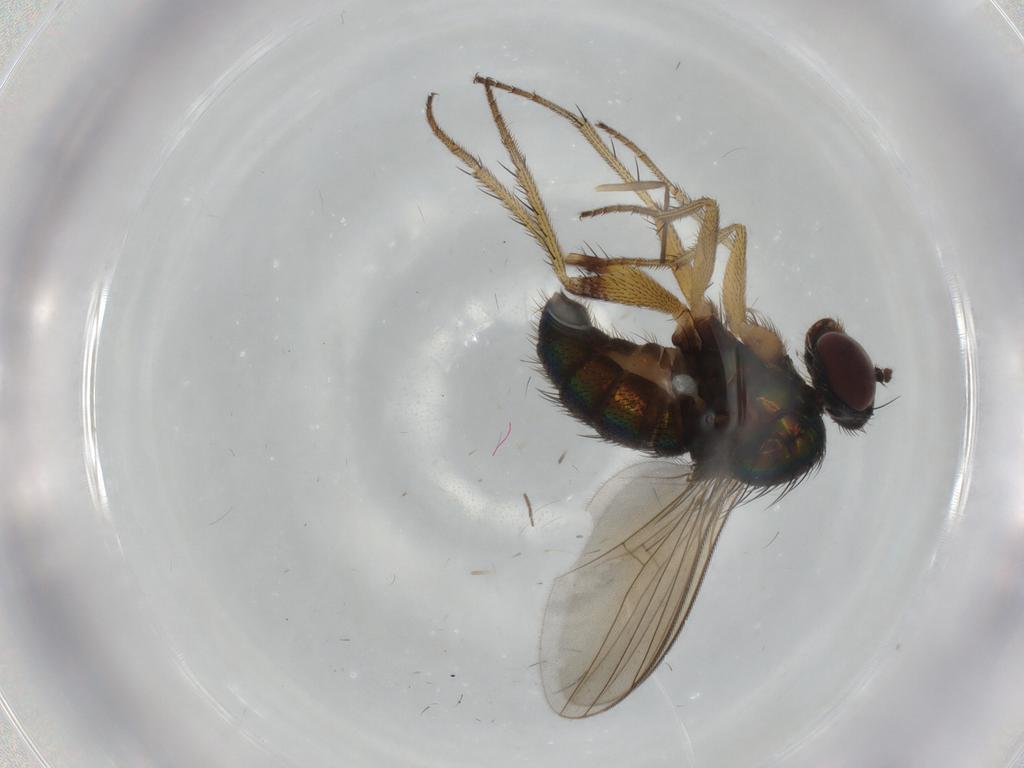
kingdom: Animalia
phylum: Arthropoda
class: Insecta
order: Diptera
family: Dolichopodidae
